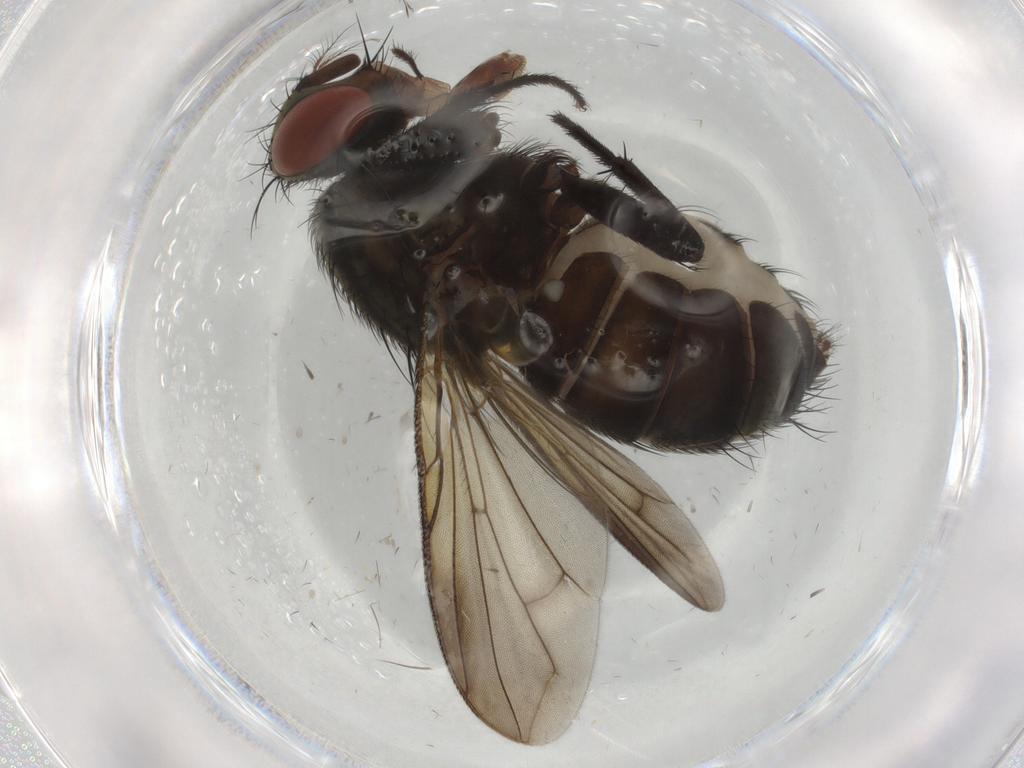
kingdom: Animalia
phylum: Arthropoda
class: Insecta
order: Diptera
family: Sarcophagidae
